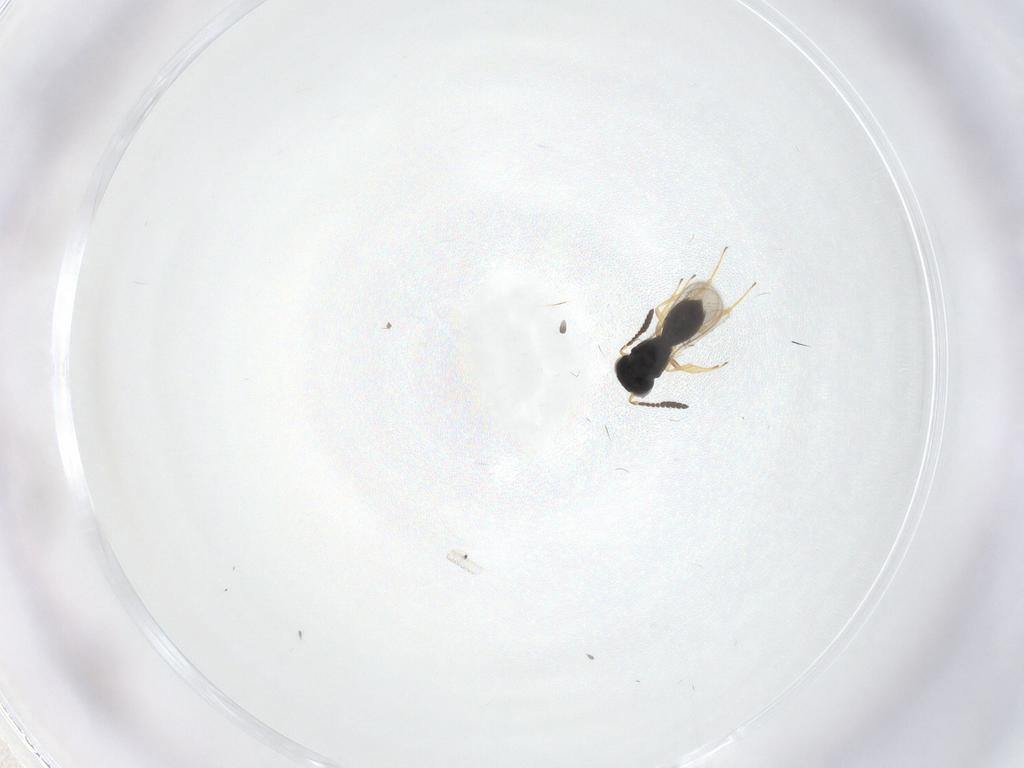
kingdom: Animalia
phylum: Arthropoda
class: Insecta
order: Hymenoptera
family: Scelionidae
